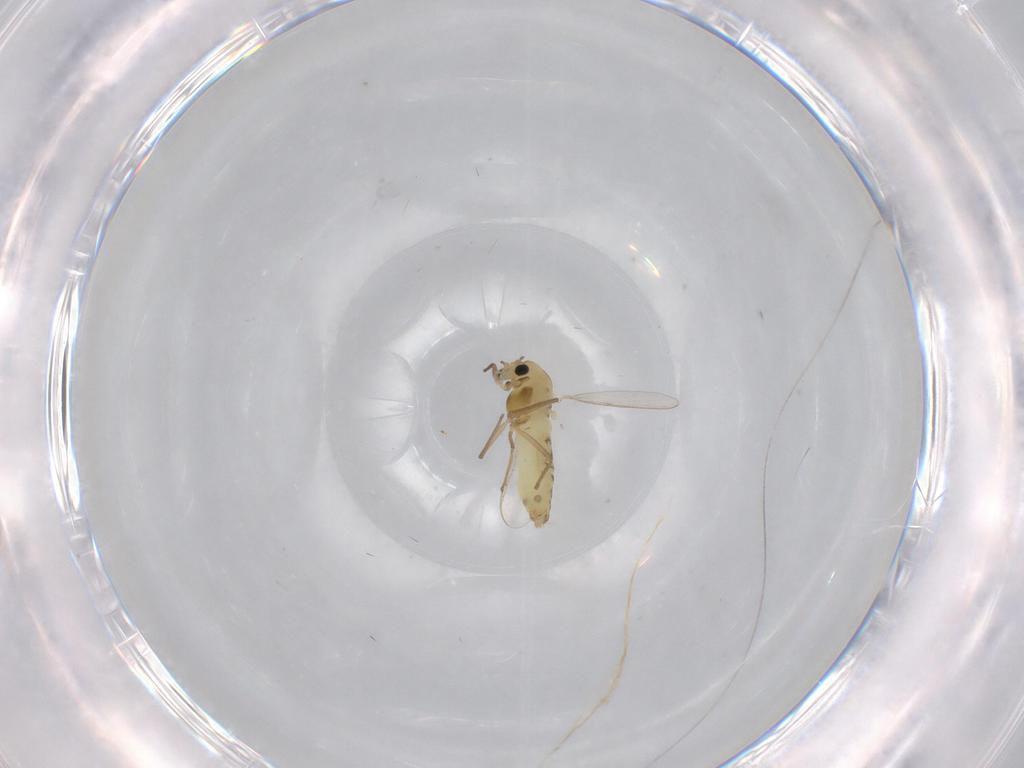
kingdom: Animalia
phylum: Arthropoda
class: Insecta
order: Diptera
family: Chironomidae
